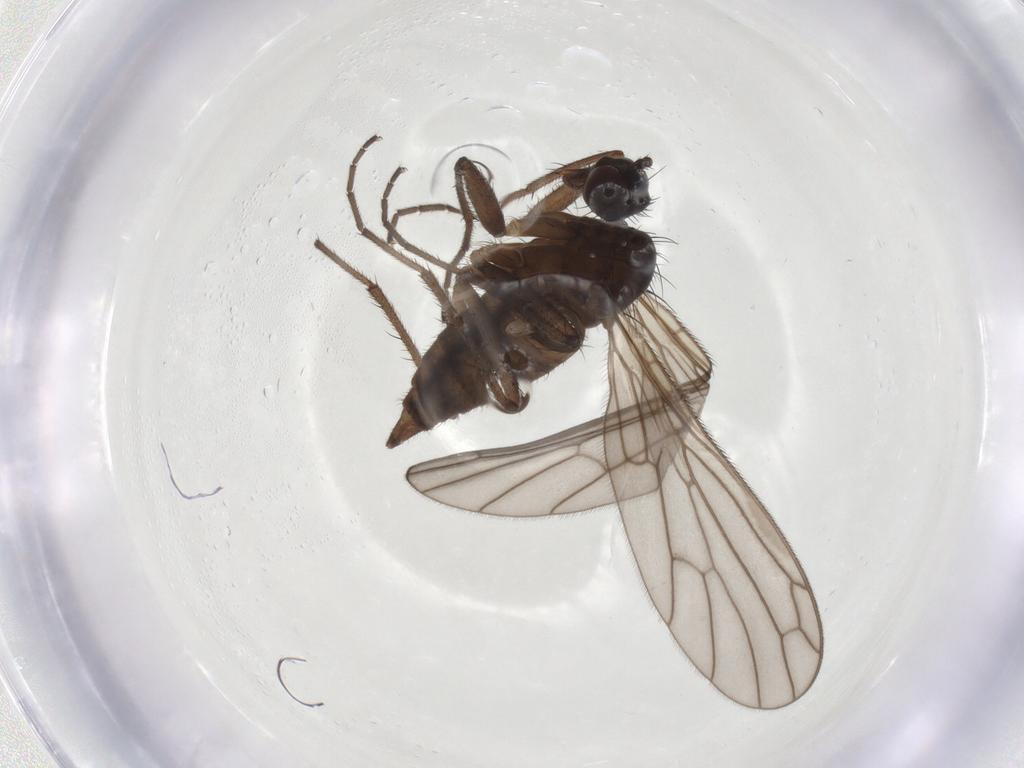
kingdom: Animalia
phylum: Arthropoda
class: Insecta
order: Diptera
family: Empididae
